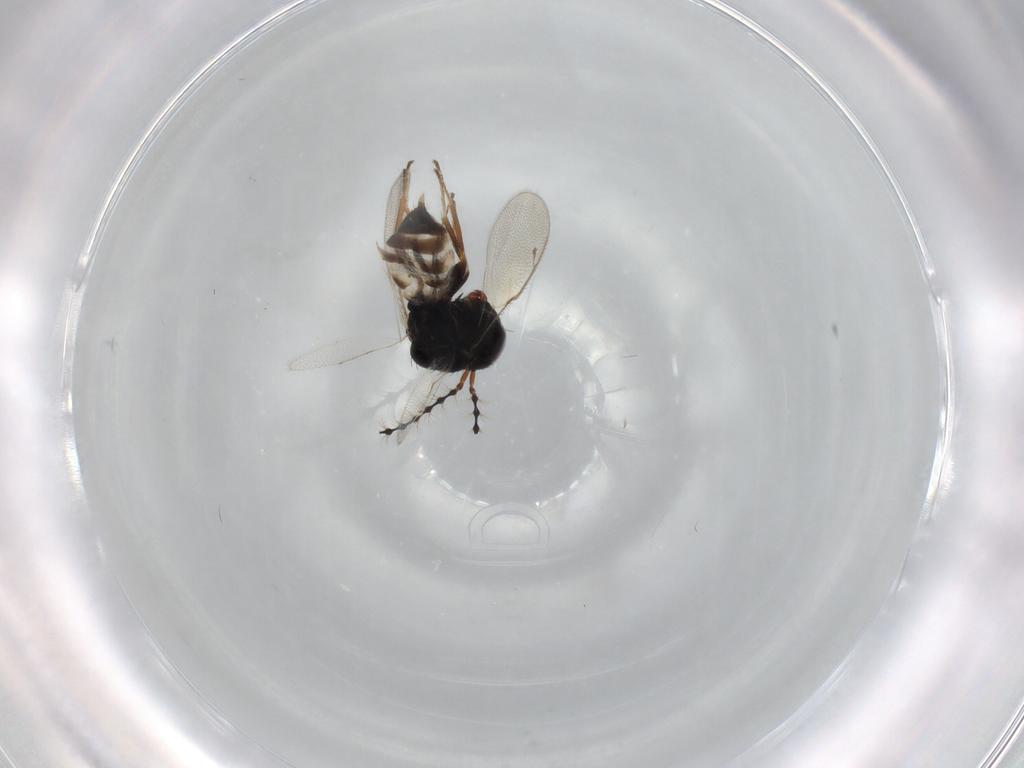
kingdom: Animalia
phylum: Arthropoda
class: Insecta
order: Hymenoptera
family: Pteromalidae
